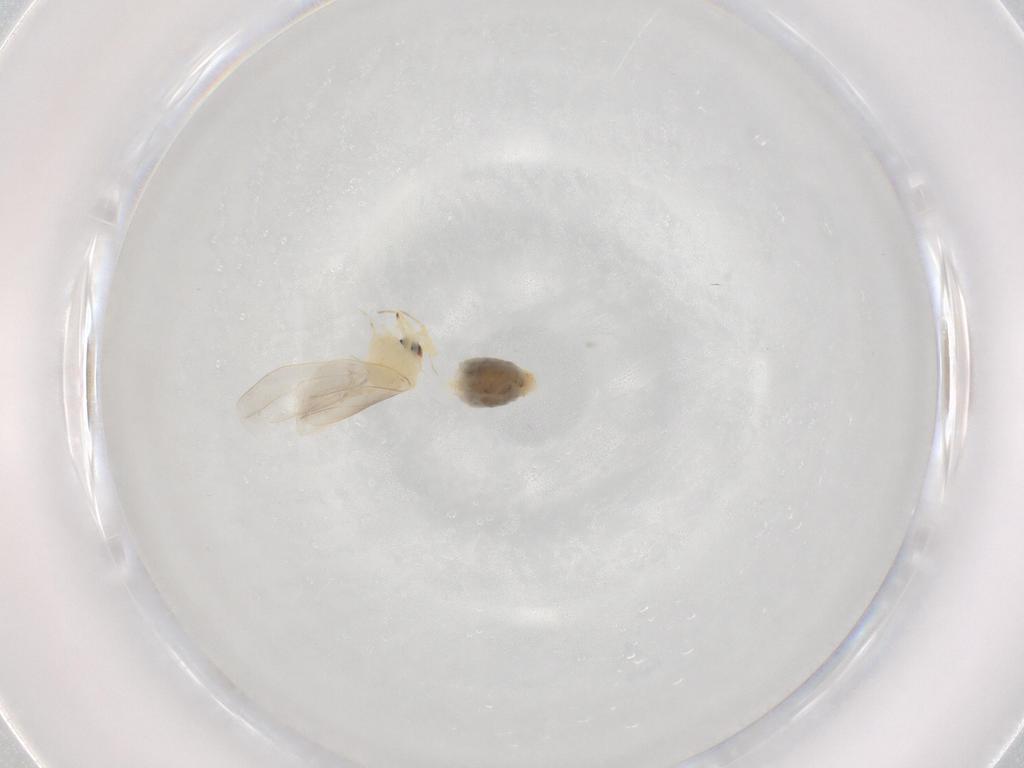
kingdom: Animalia
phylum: Arthropoda
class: Insecta
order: Hemiptera
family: Aleyrodidae
